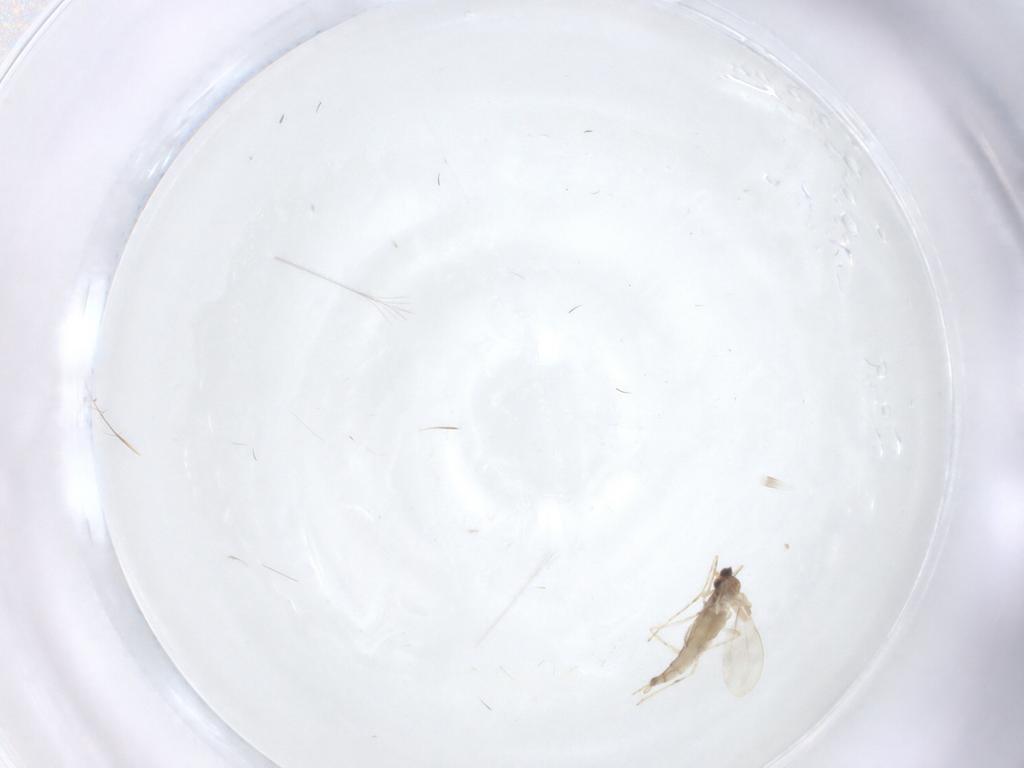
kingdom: Animalia
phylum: Arthropoda
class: Insecta
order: Diptera
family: Cecidomyiidae
